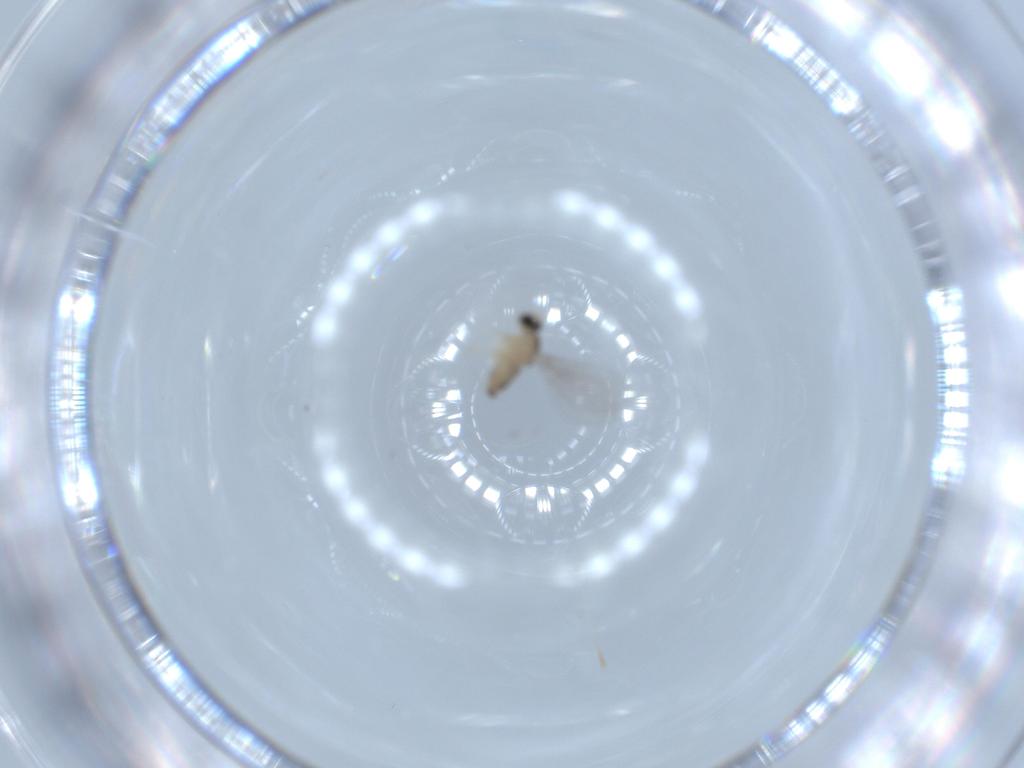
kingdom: Animalia
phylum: Arthropoda
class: Insecta
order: Diptera
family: Cecidomyiidae
